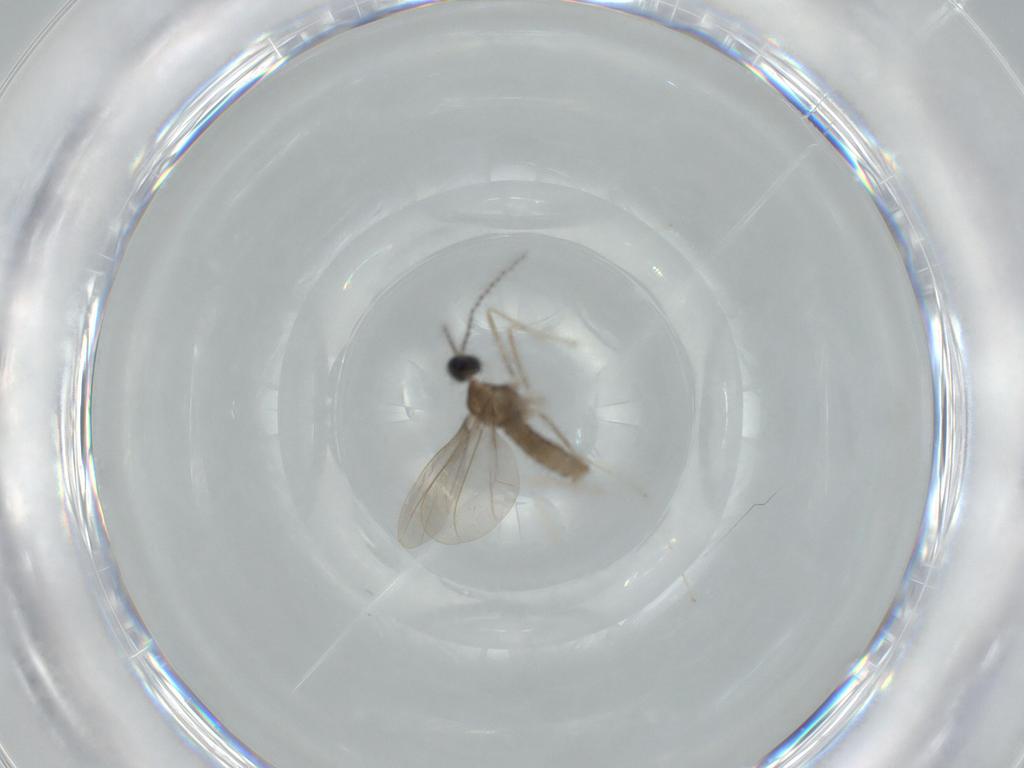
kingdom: Animalia
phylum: Arthropoda
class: Insecta
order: Diptera
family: Cecidomyiidae
